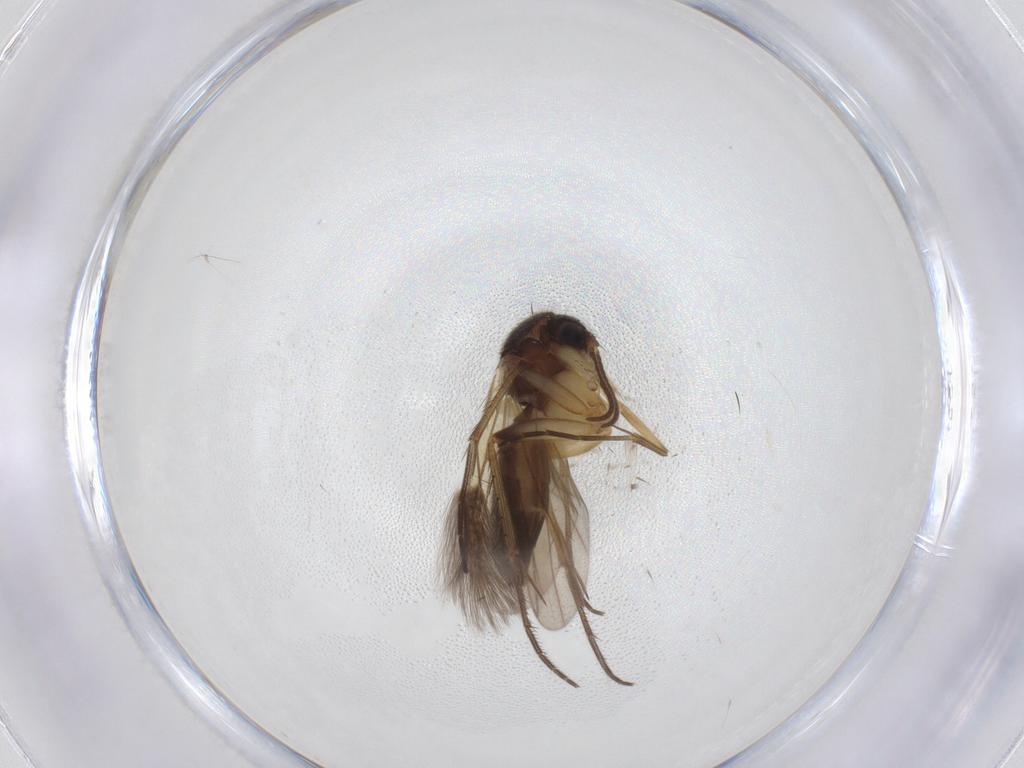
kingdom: Animalia
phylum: Arthropoda
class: Insecta
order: Diptera
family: Mycetophilidae
